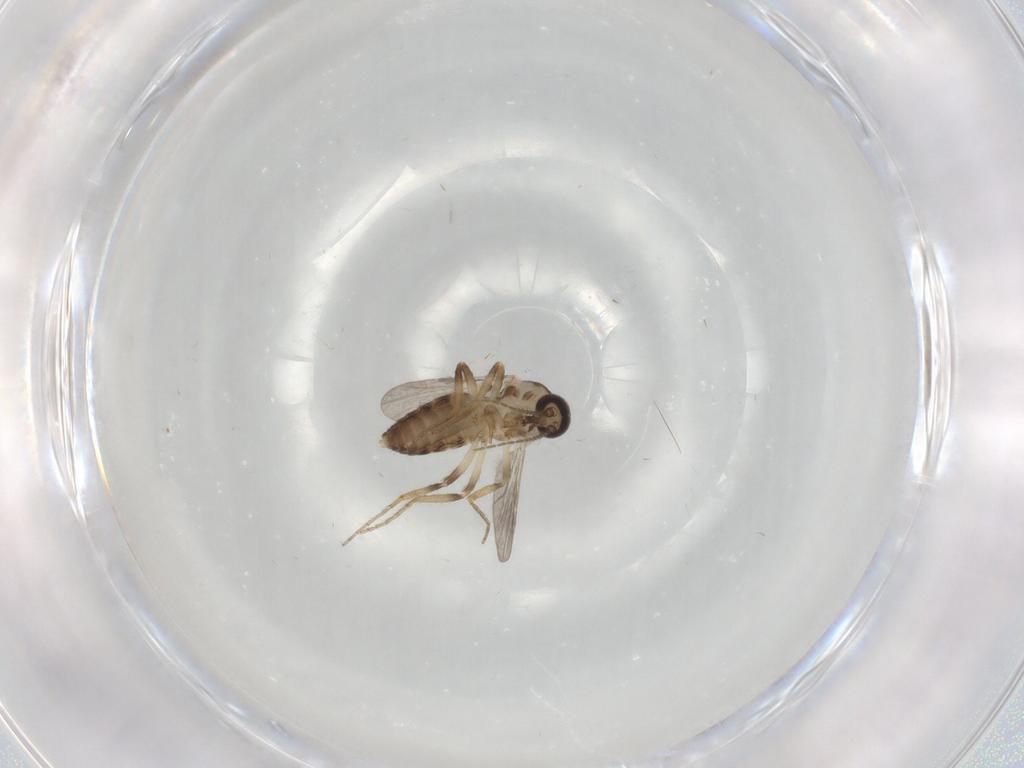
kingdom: Animalia
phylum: Arthropoda
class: Insecta
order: Diptera
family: Ceratopogonidae
